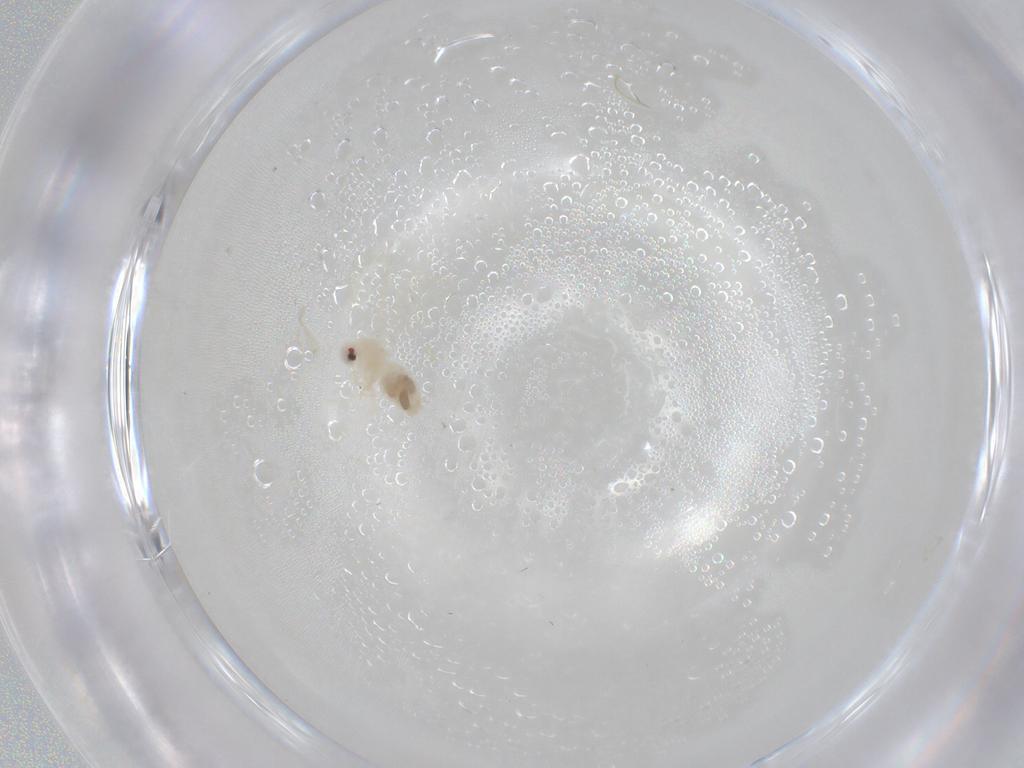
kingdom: Animalia
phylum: Arthropoda
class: Insecta
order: Hemiptera
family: Aleyrodidae
